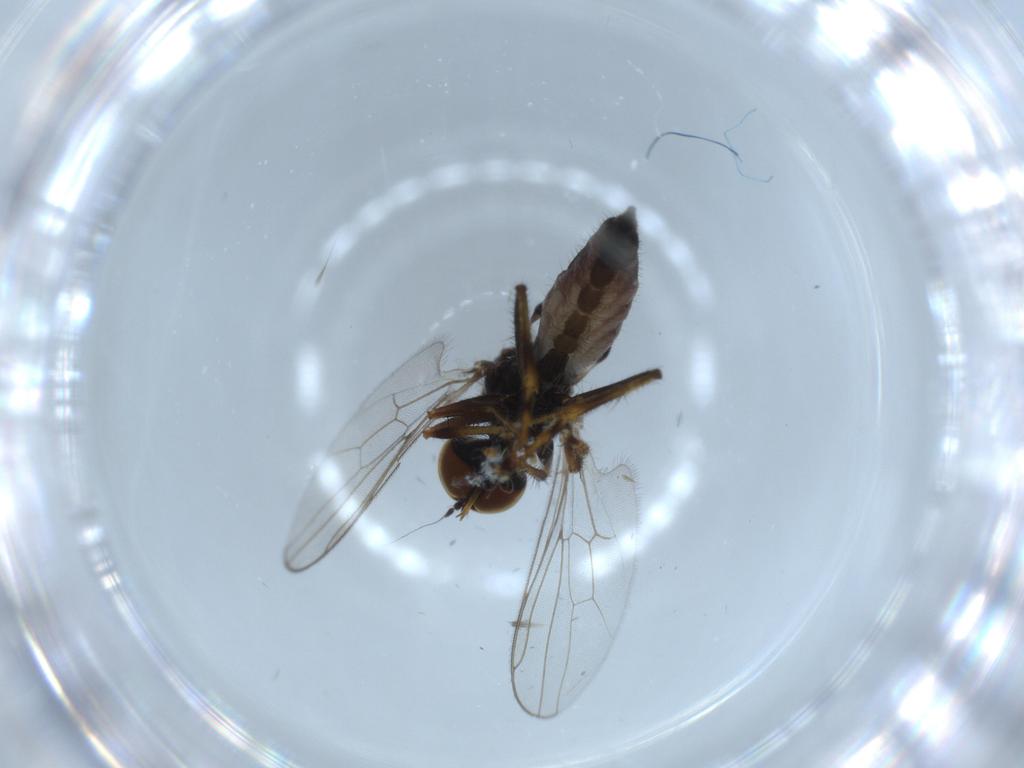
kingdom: Animalia
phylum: Arthropoda
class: Insecta
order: Diptera
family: Hybotidae
